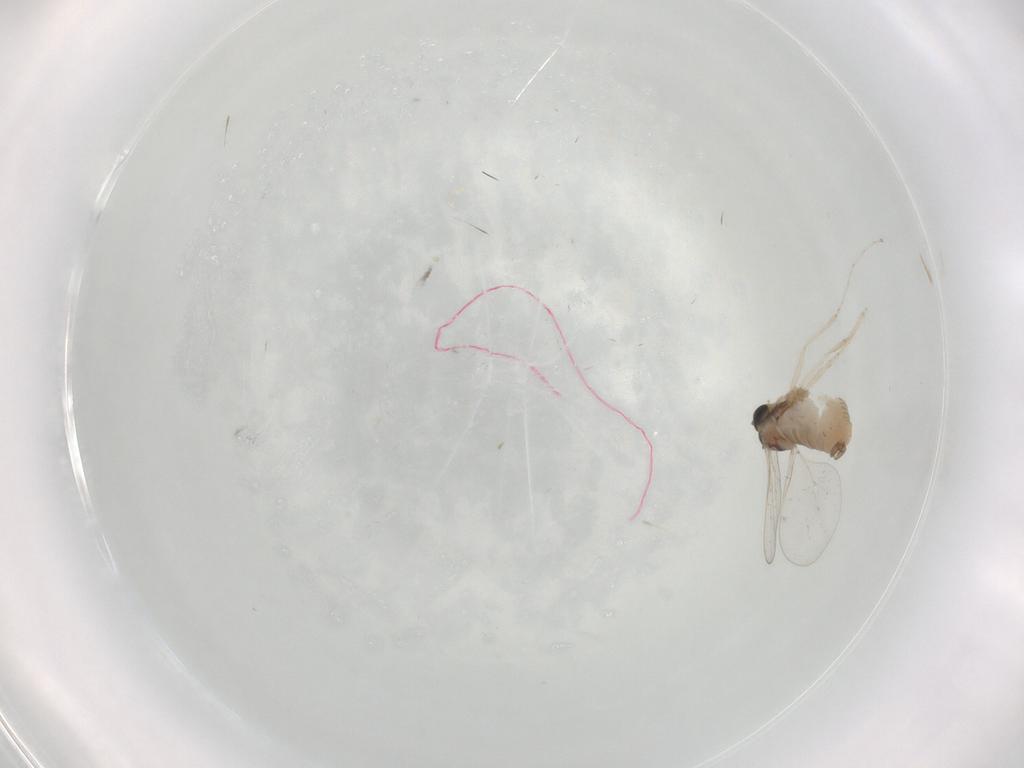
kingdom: Animalia
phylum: Arthropoda
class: Insecta
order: Diptera
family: Cecidomyiidae
